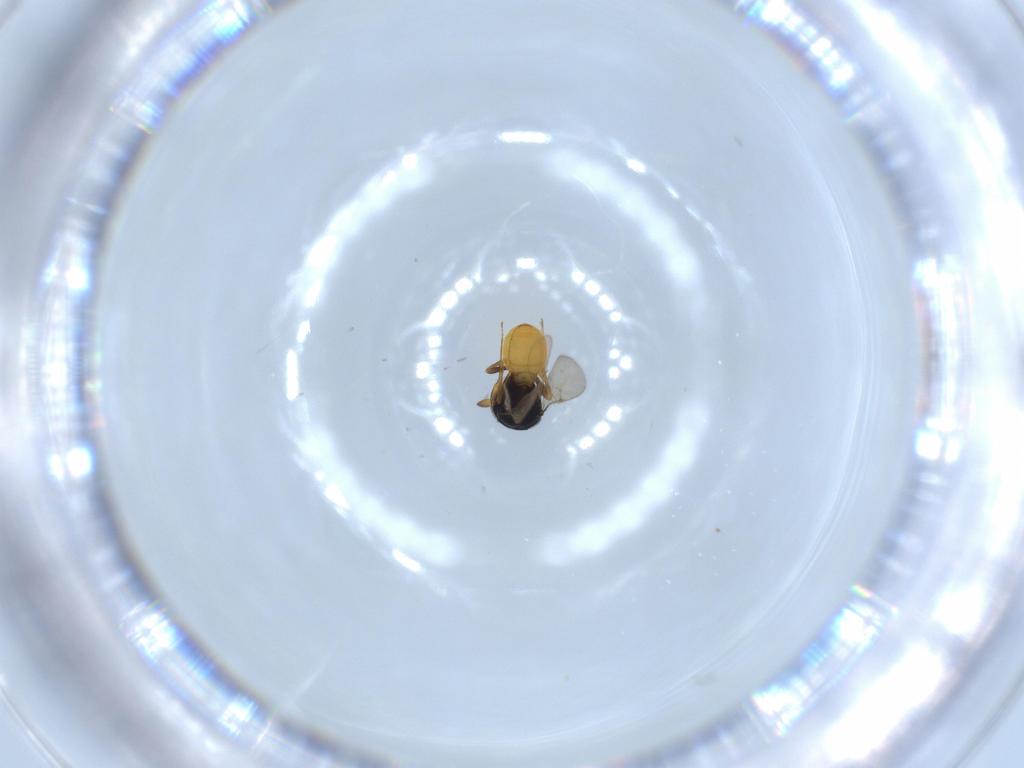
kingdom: Animalia
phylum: Arthropoda
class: Insecta
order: Hymenoptera
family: Scelionidae
